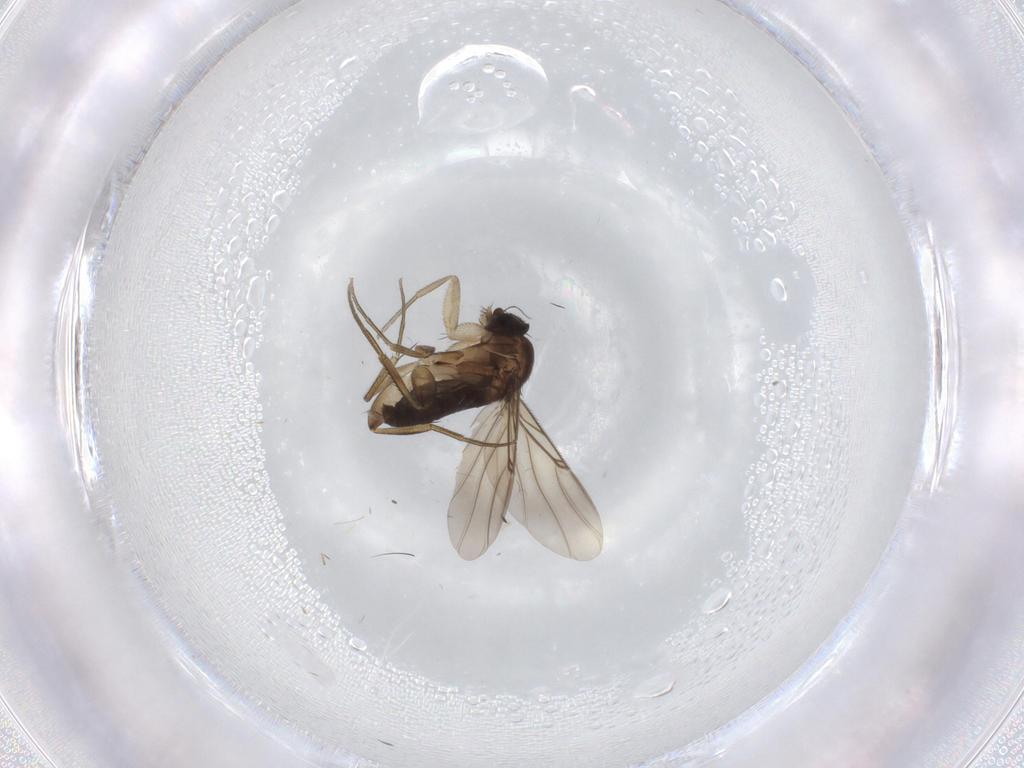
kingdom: Animalia
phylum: Arthropoda
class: Insecta
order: Diptera
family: Phoridae
